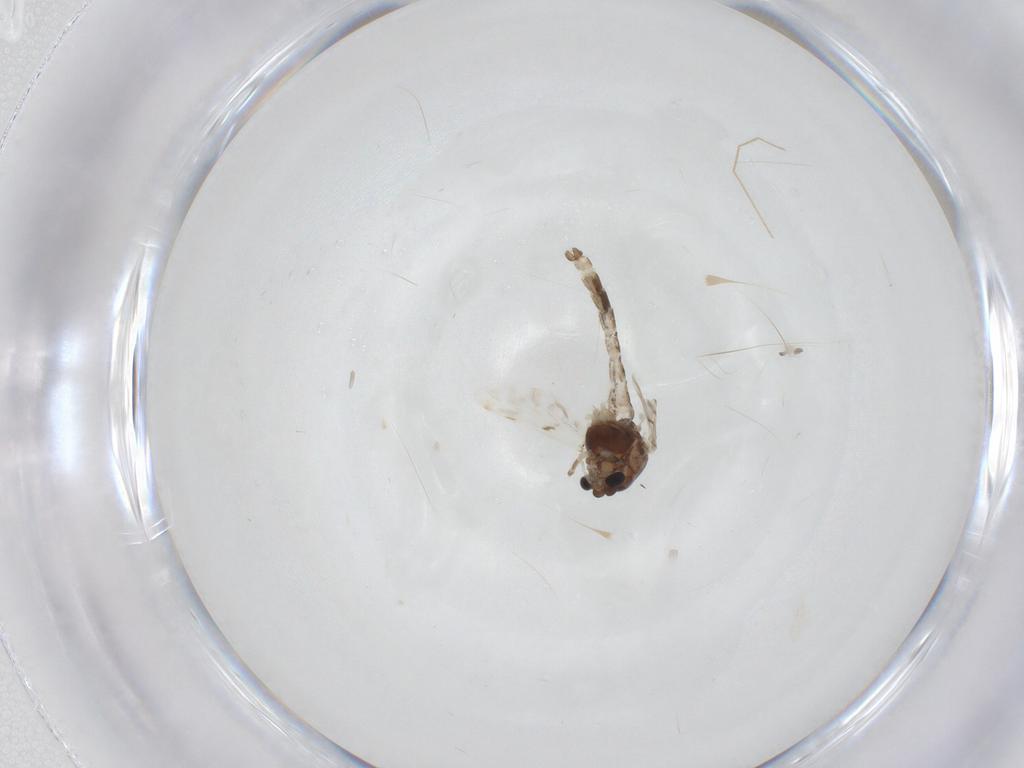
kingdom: Animalia
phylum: Arthropoda
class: Insecta
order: Diptera
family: Chironomidae
